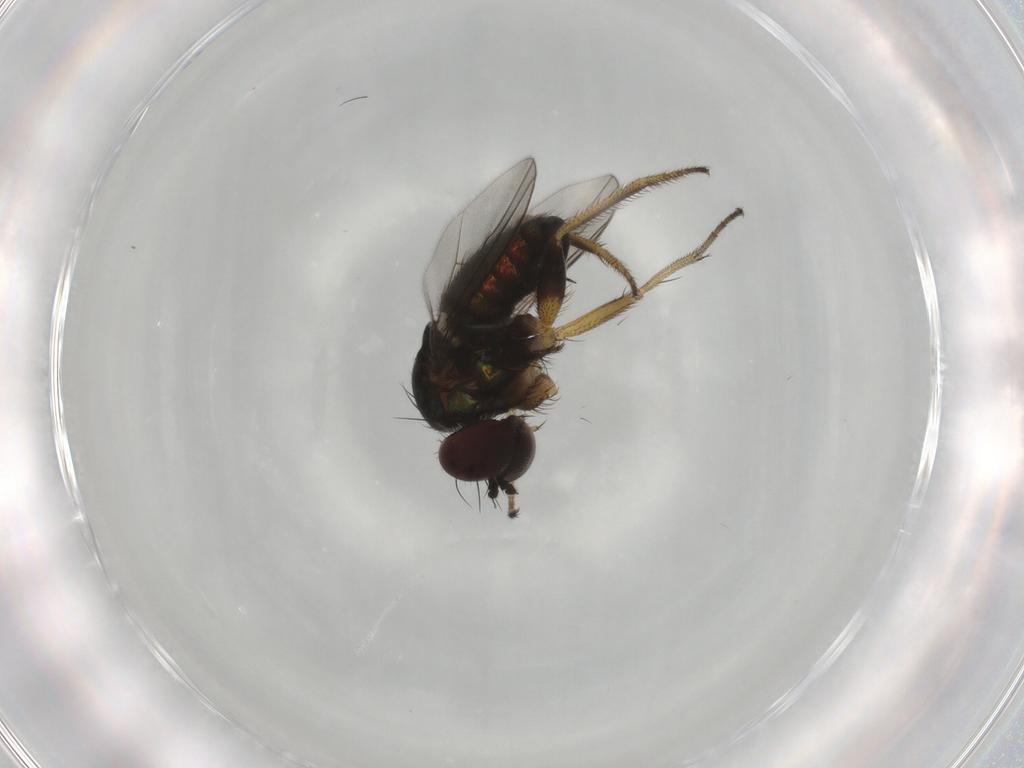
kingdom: Animalia
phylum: Arthropoda
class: Insecta
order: Diptera
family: Dolichopodidae
